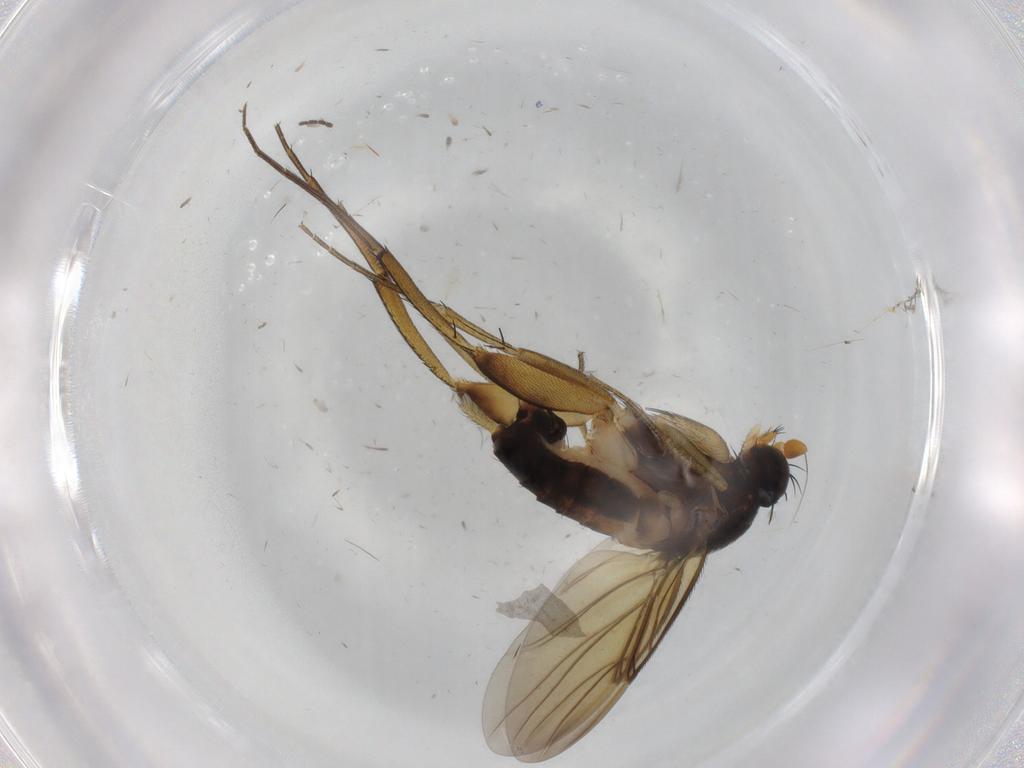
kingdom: Animalia
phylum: Arthropoda
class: Insecta
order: Diptera
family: Phoridae
